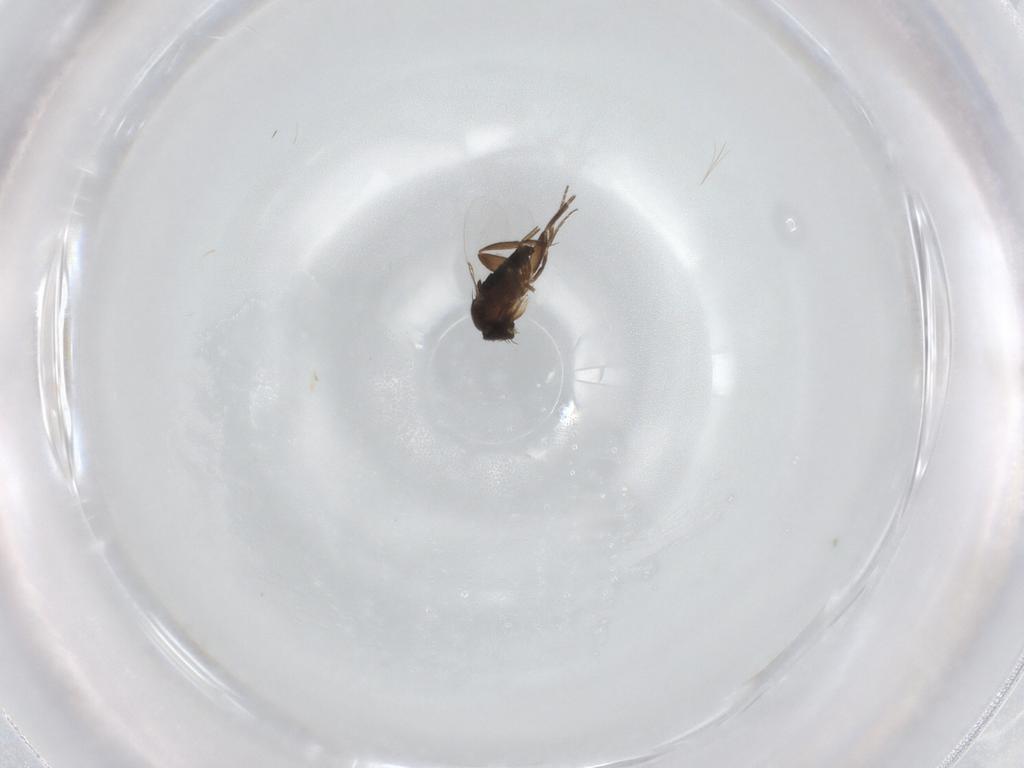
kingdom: Animalia
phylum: Arthropoda
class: Insecta
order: Diptera
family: Phoridae
